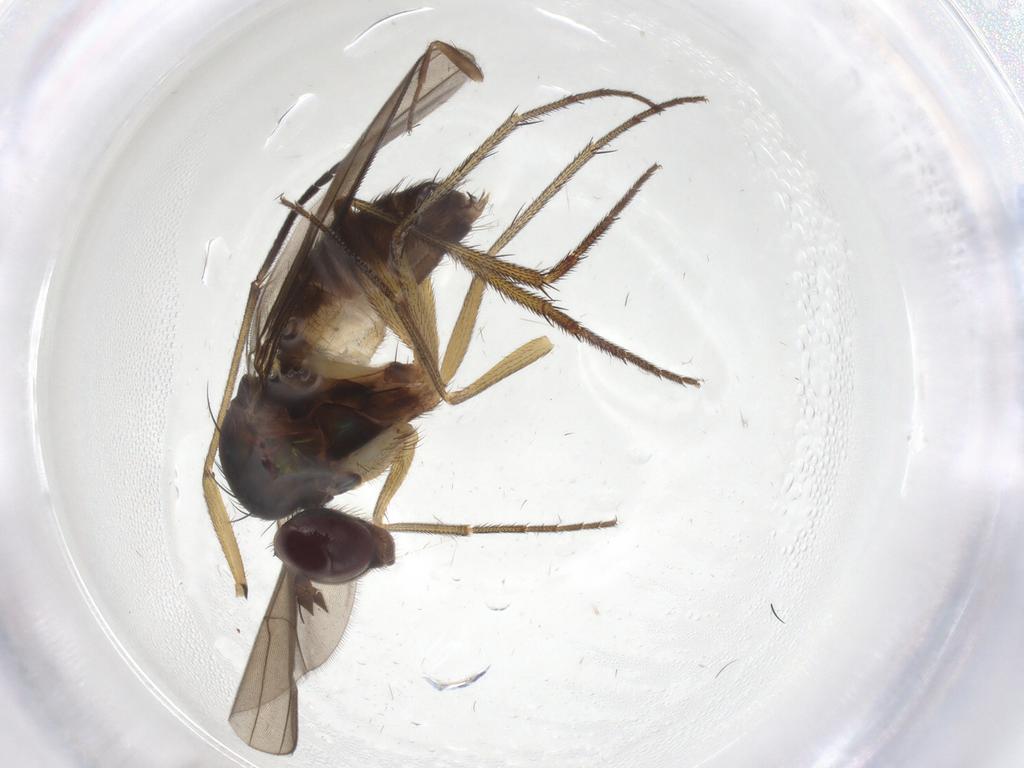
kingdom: Animalia
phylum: Arthropoda
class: Insecta
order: Diptera
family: Dolichopodidae
